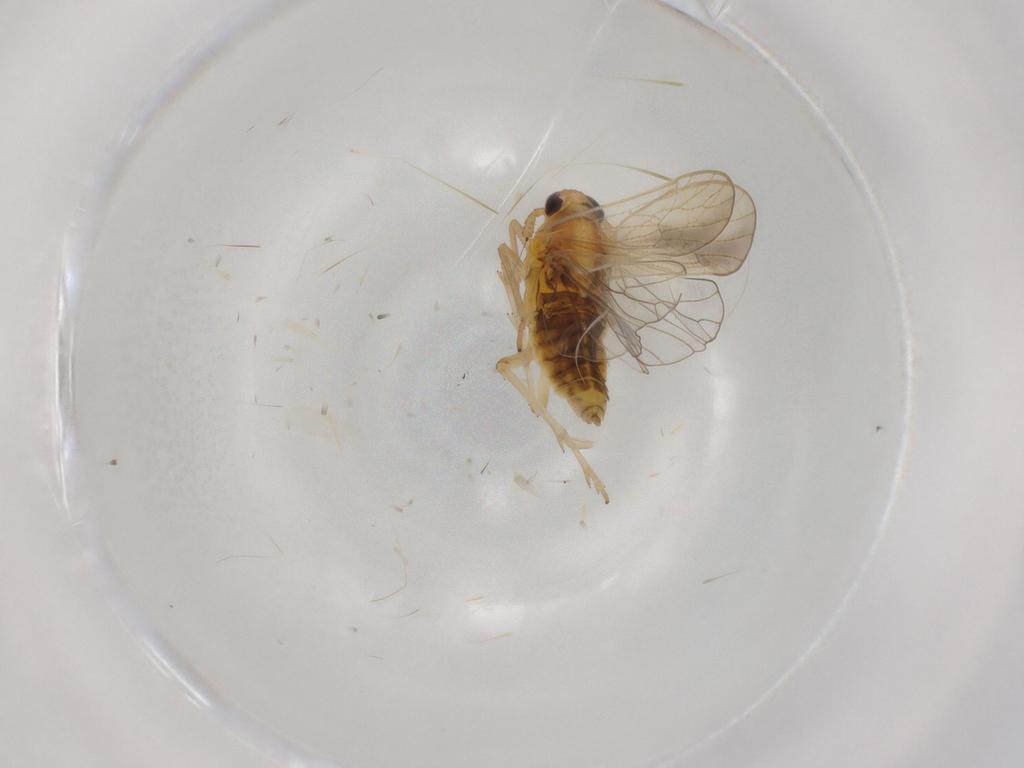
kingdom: Animalia
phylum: Arthropoda
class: Insecta
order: Hemiptera
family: Delphacidae
